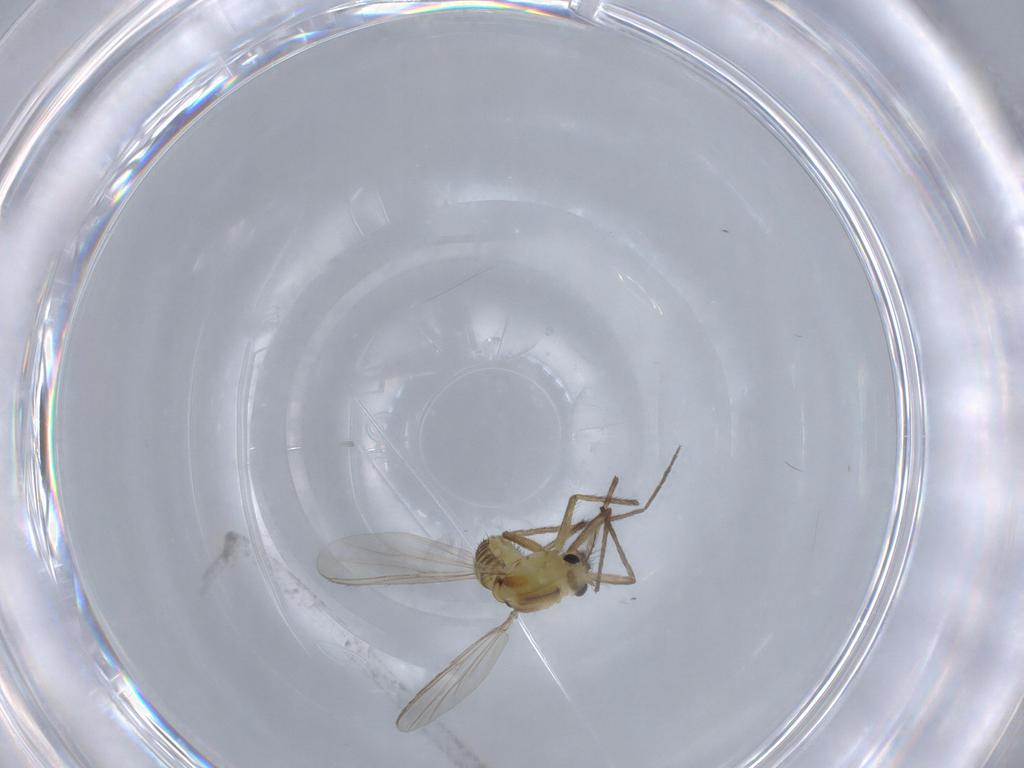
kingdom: Animalia
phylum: Arthropoda
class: Insecta
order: Diptera
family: Chironomidae
